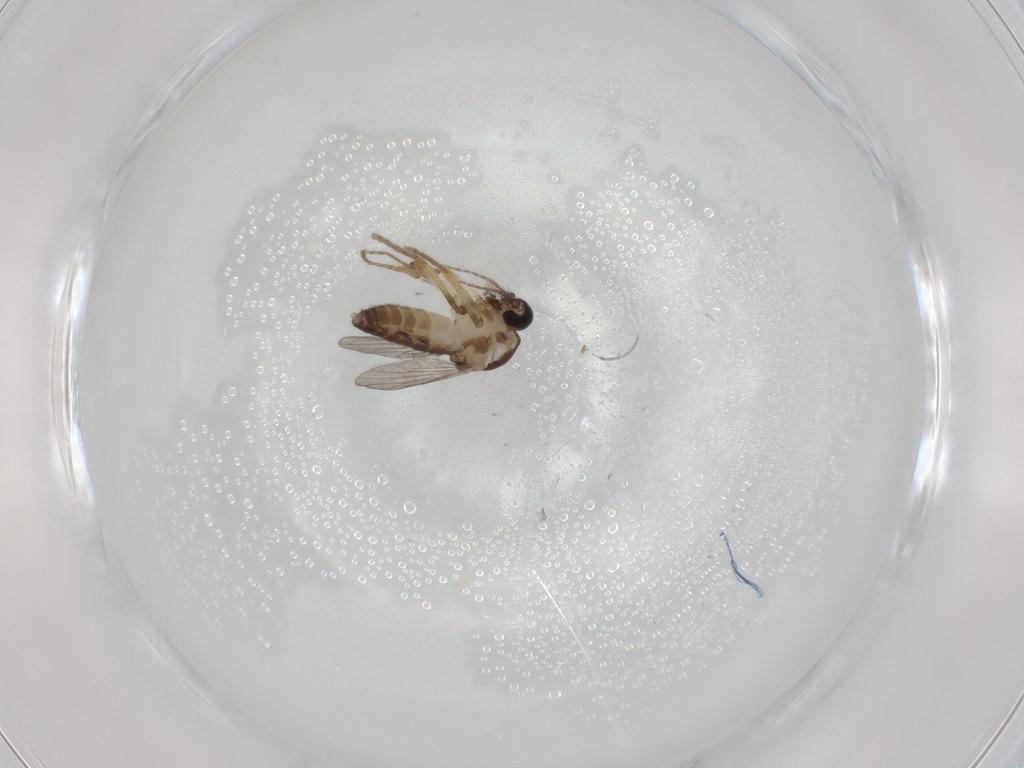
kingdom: Animalia
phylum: Arthropoda
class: Insecta
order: Diptera
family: Ceratopogonidae
